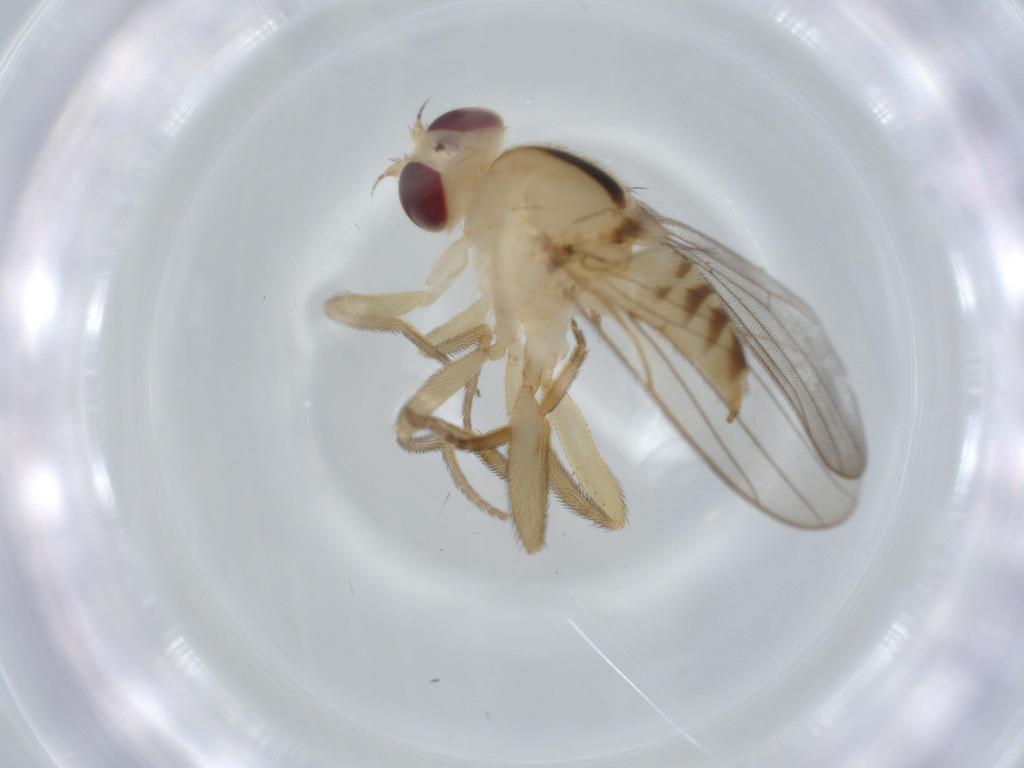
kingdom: Animalia
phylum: Arthropoda
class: Insecta
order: Diptera
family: Chloropidae
